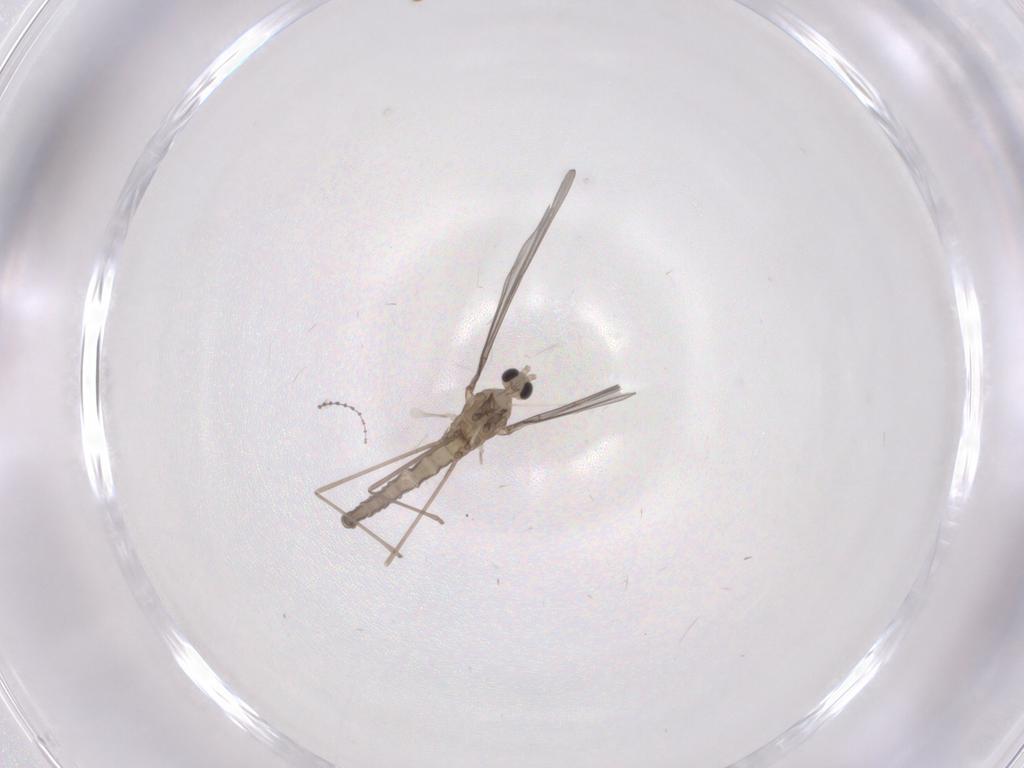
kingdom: Animalia
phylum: Arthropoda
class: Insecta
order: Diptera
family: Cecidomyiidae
